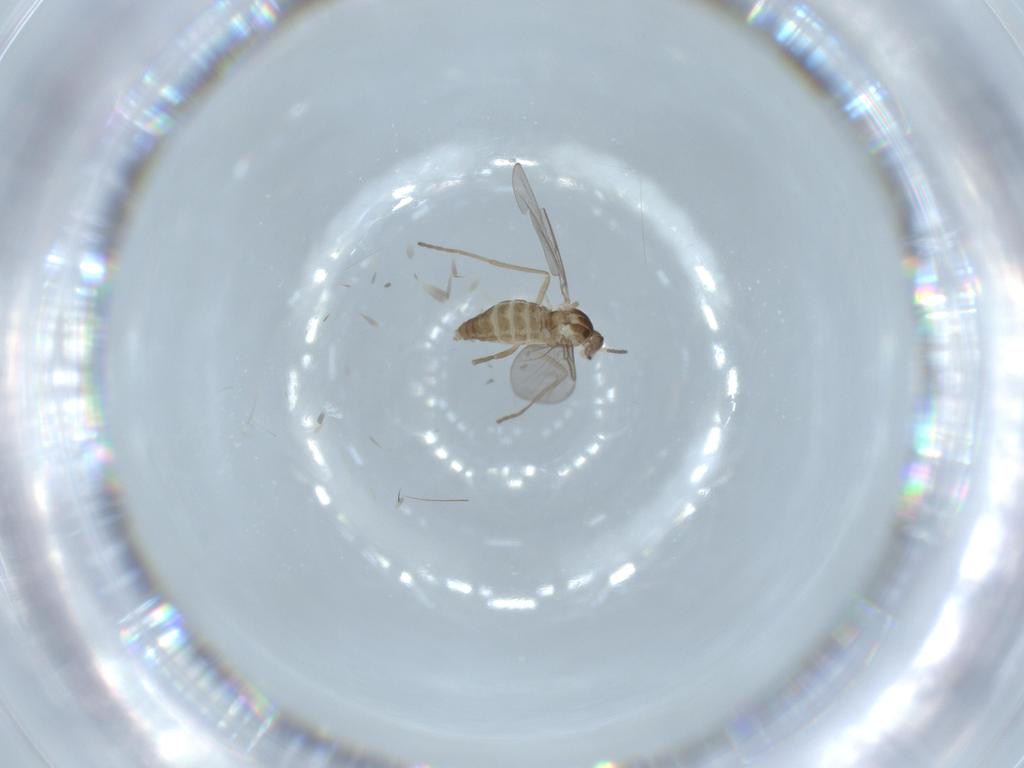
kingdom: Animalia
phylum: Arthropoda
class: Insecta
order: Diptera
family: Cecidomyiidae
